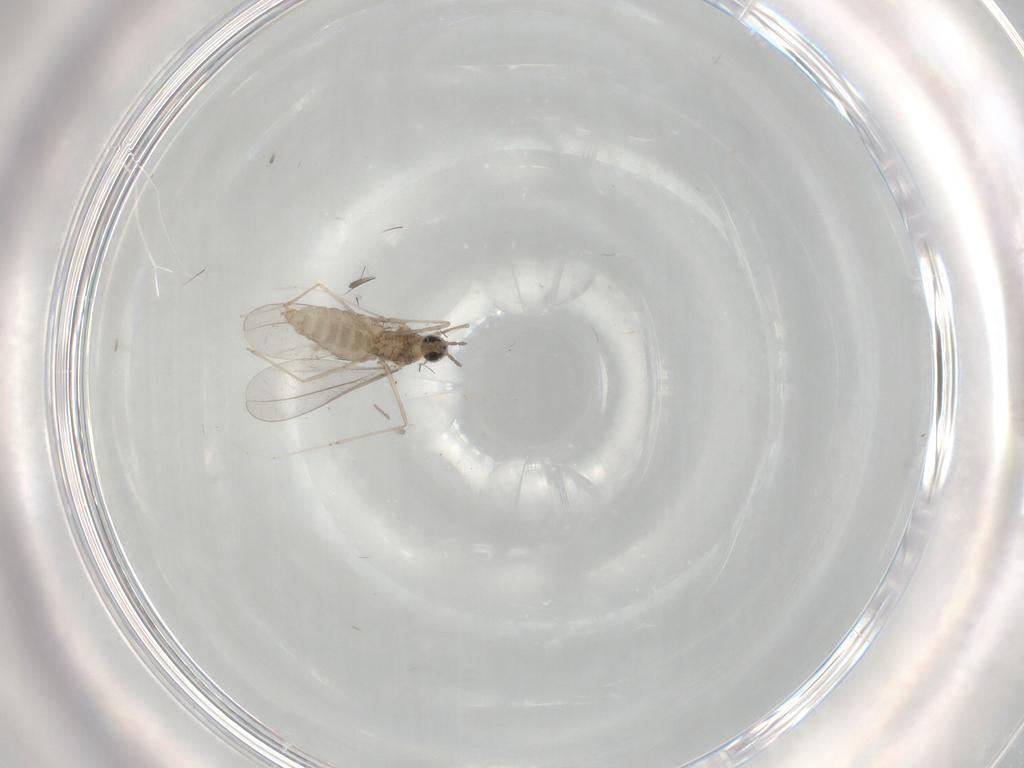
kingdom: Animalia
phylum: Arthropoda
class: Insecta
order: Diptera
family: Cecidomyiidae
